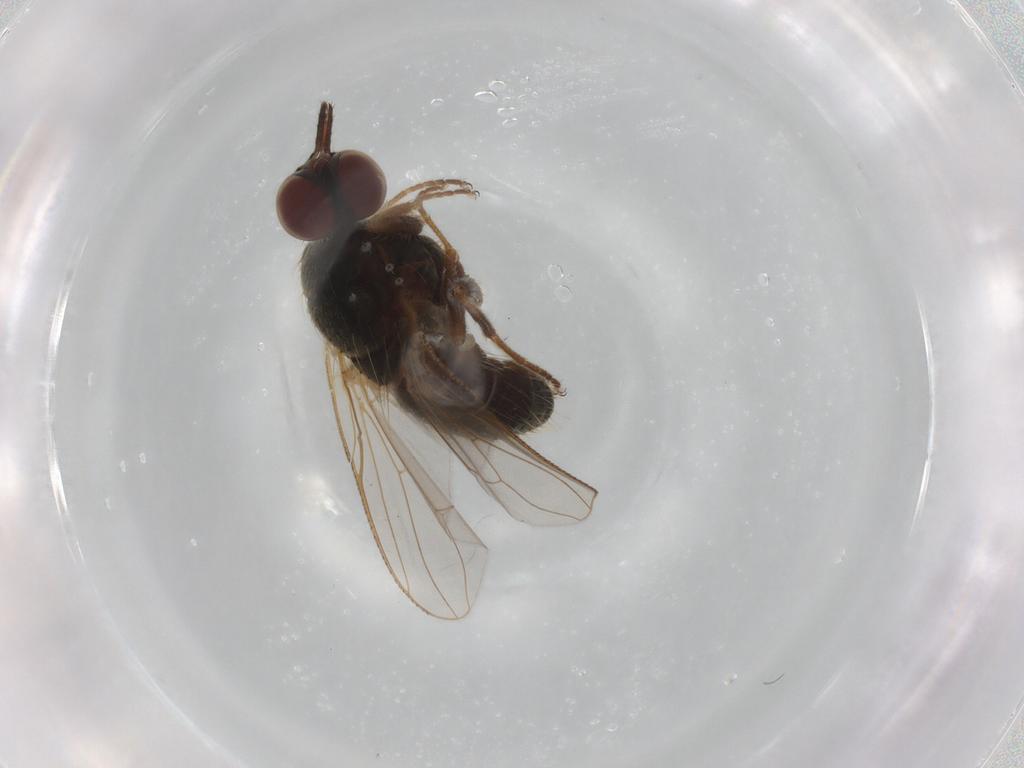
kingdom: Animalia
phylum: Arthropoda
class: Insecta
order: Diptera
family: Muscidae
